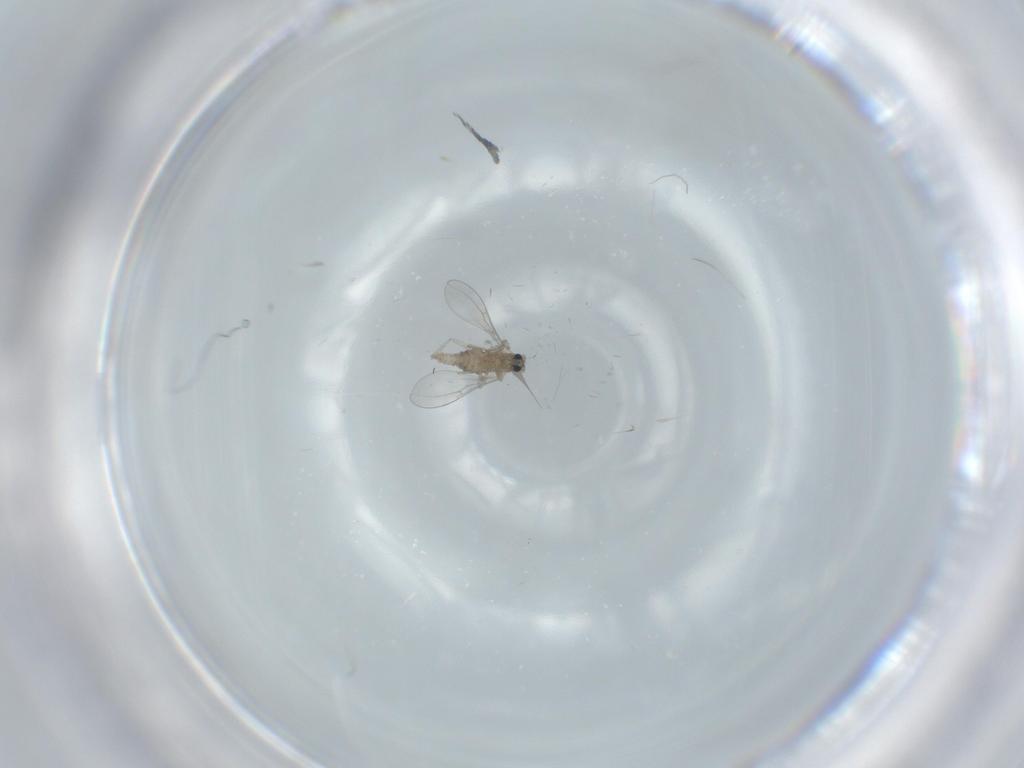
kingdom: Animalia
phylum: Arthropoda
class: Insecta
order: Diptera
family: Cecidomyiidae
